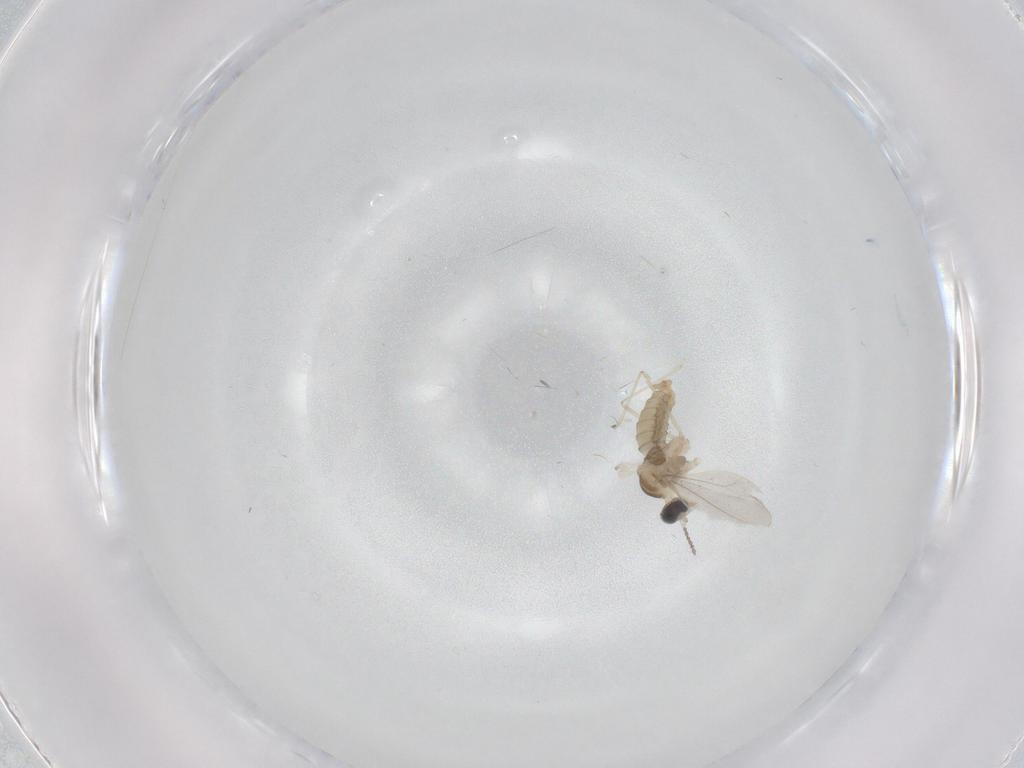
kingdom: Animalia
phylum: Arthropoda
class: Insecta
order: Diptera
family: Cecidomyiidae
